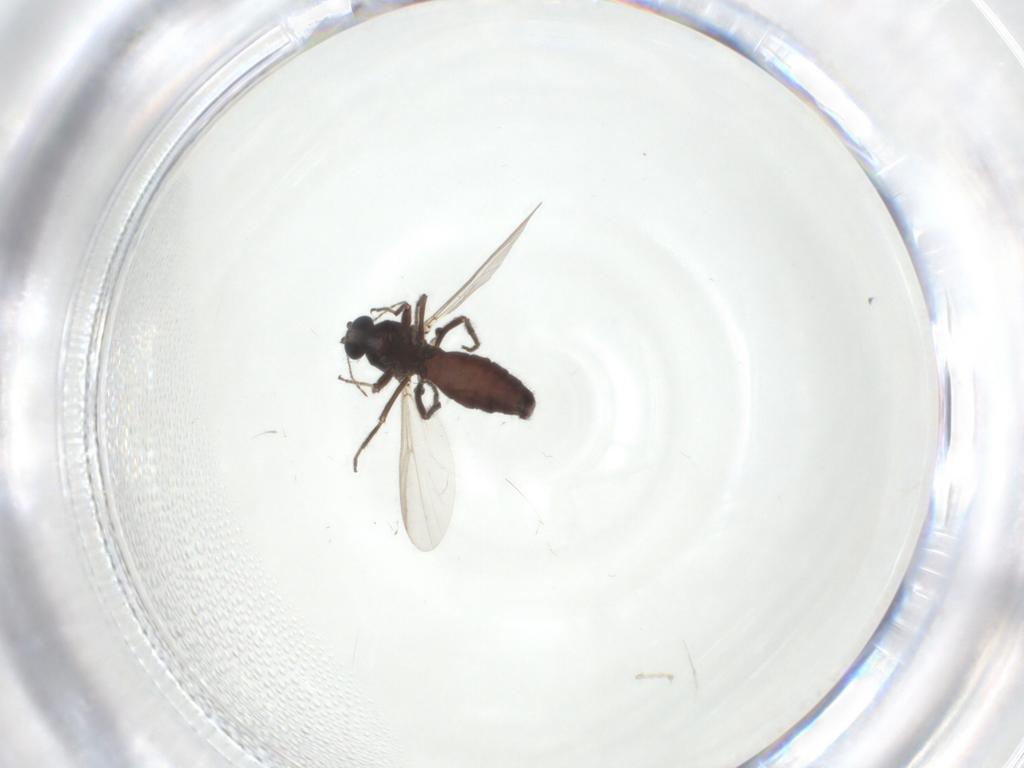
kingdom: Animalia
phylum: Arthropoda
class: Insecta
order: Diptera
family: Ceratopogonidae
